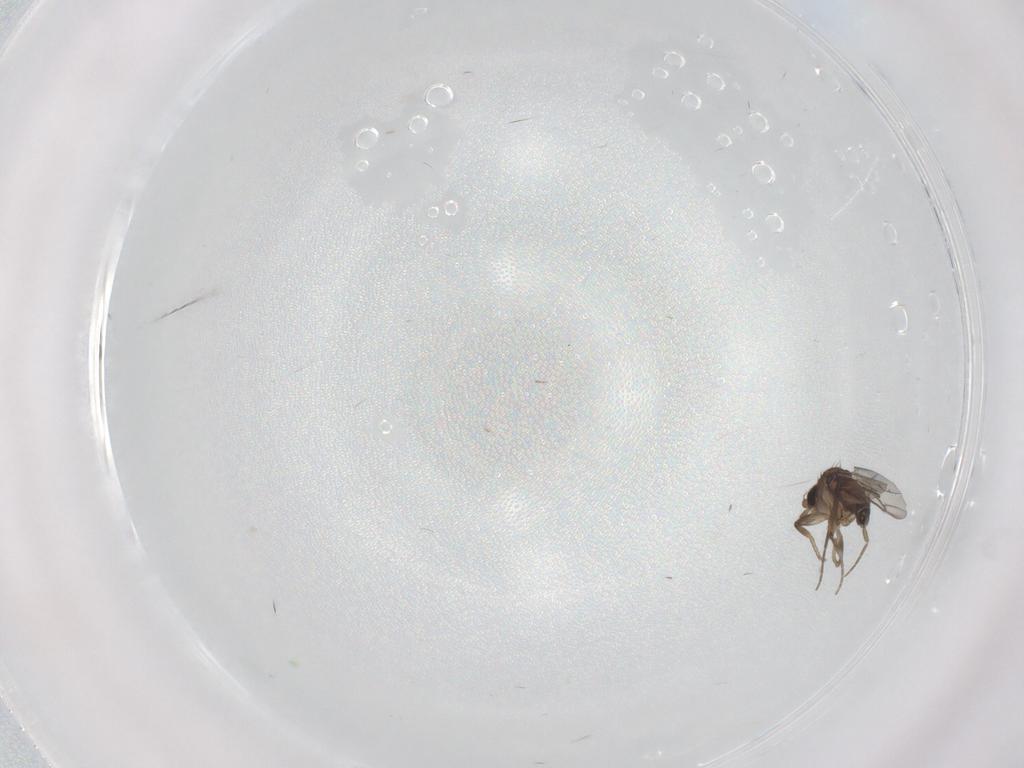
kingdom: Animalia
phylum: Arthropoda
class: Insecta
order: Diptera
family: Phoridae
